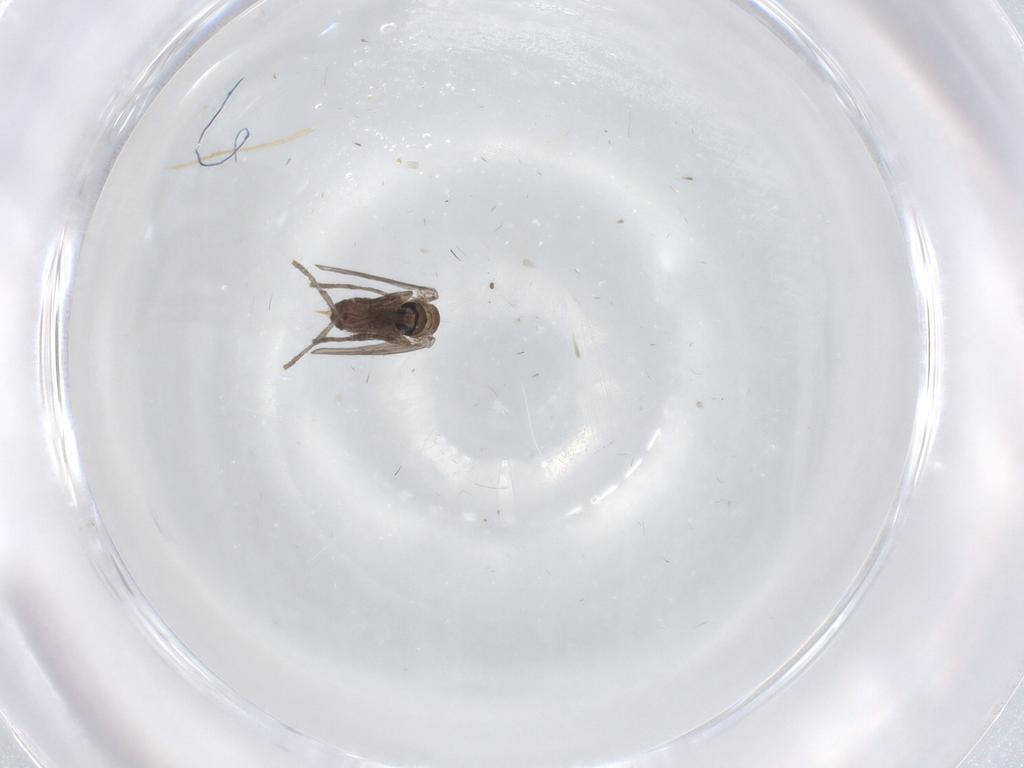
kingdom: Animalia
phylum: Arthropoda
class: Insecta
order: Diptera
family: Psychodidae
